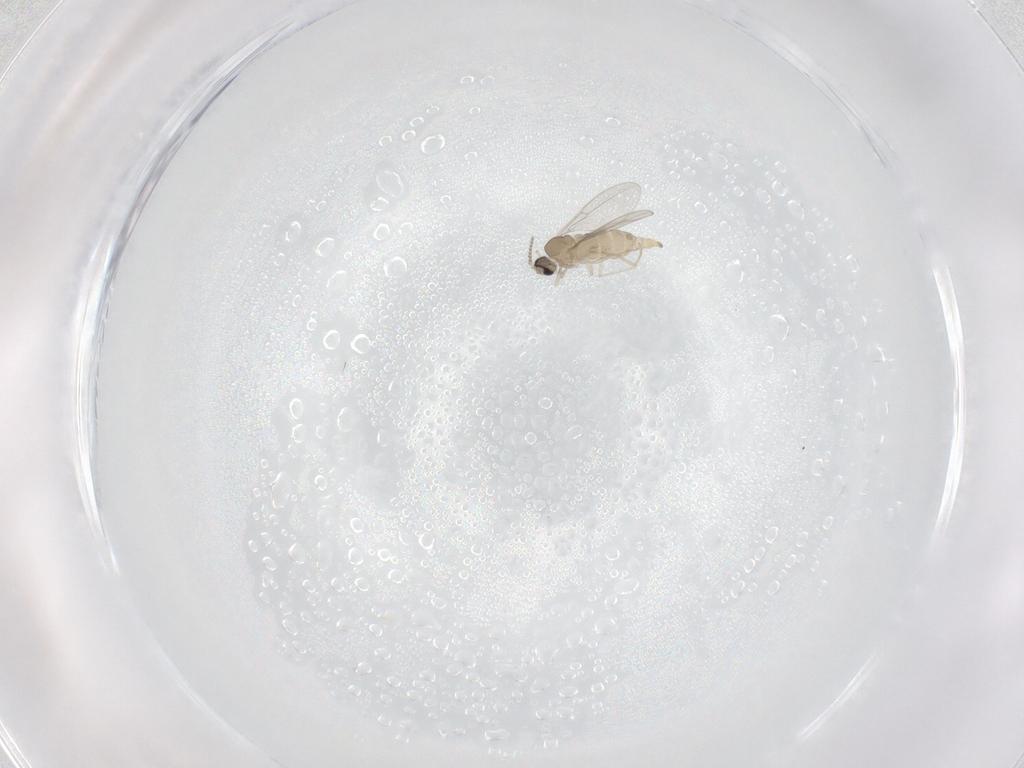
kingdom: Animalia
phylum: Arthropoda
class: Insecta
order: Diptera
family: Cecidomyiidae
